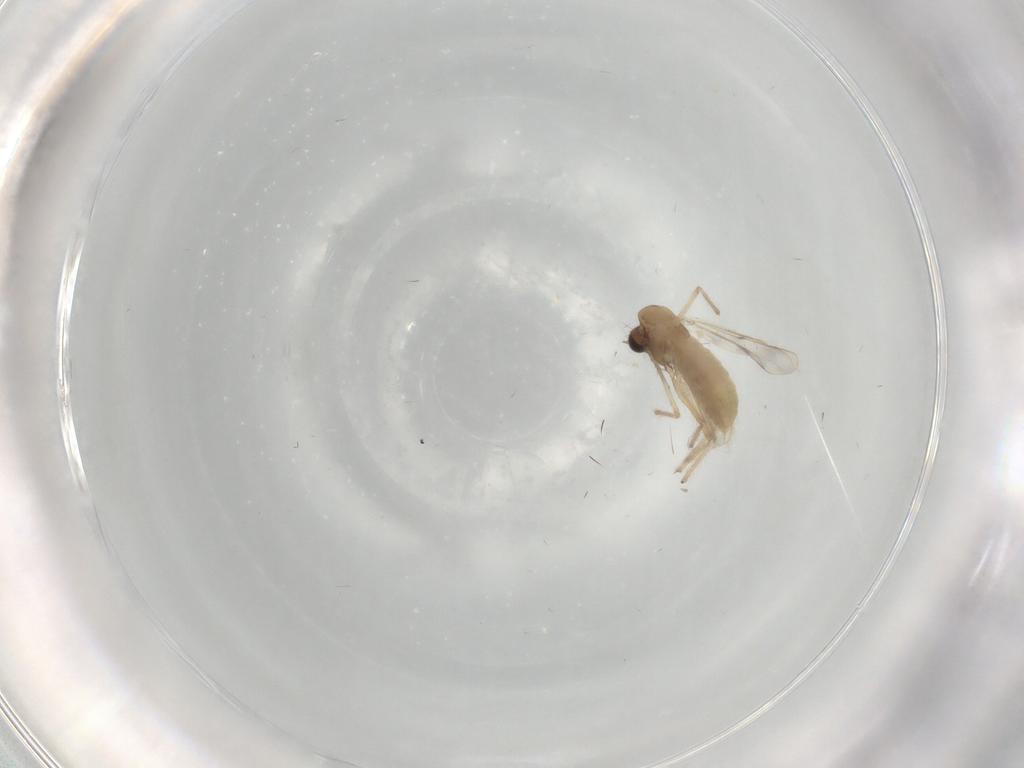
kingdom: Animalia
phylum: Arthropoda
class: Insecta
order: Diptera
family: Chironomidae
